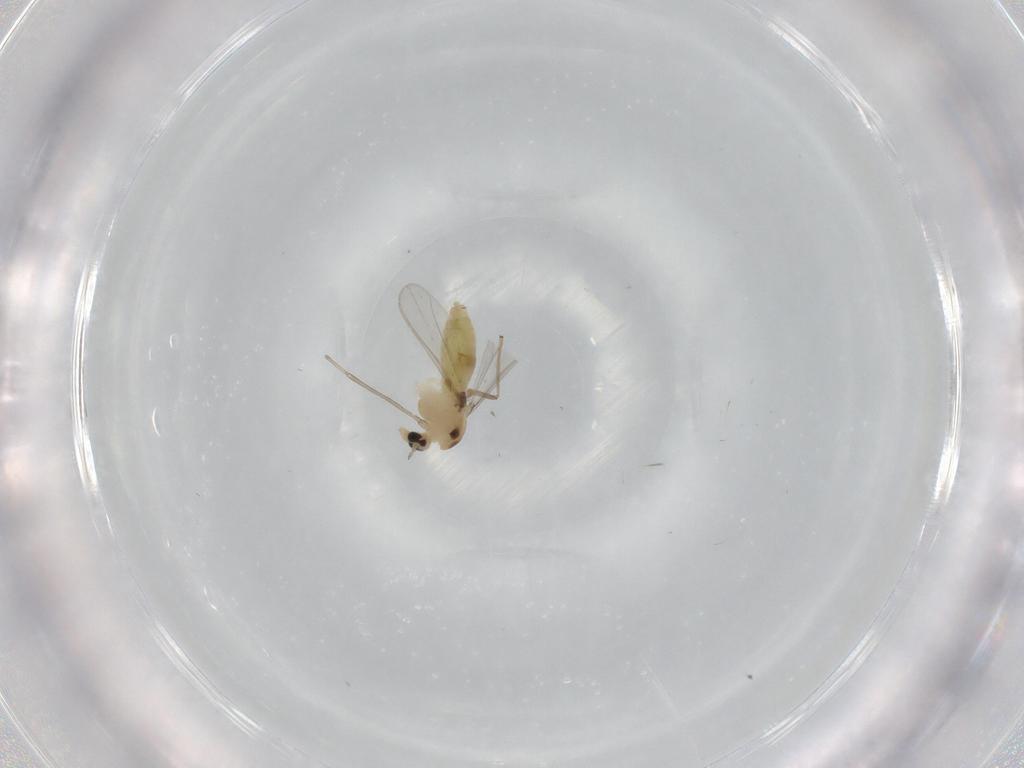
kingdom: Animalia
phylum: Arthropoda
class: Insecta
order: Diptera
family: Chironomidae
